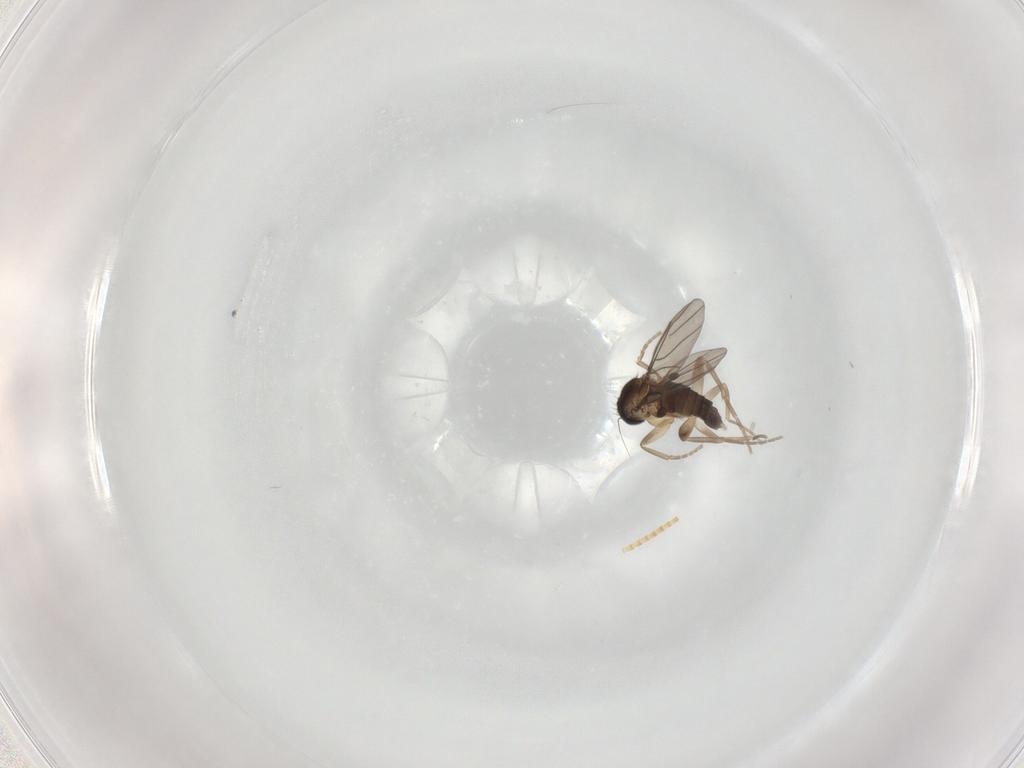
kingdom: Animalia
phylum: Arthropoda
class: Insecta
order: Diptera
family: Phoridae
